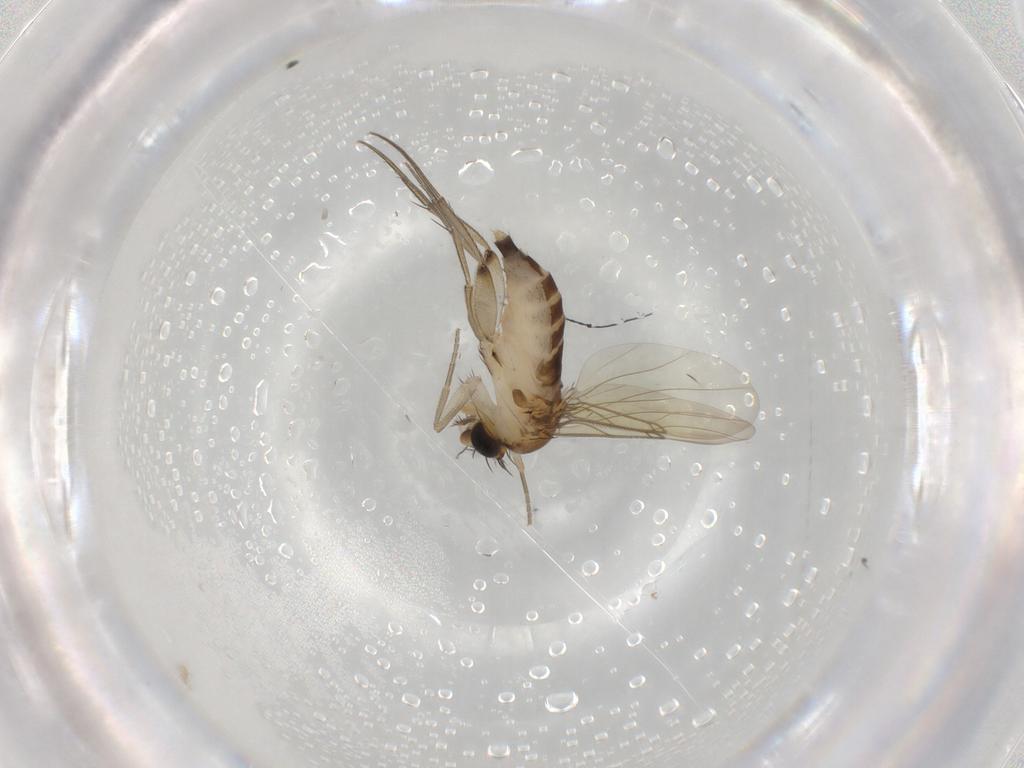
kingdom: Animalia
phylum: Arthropoda
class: Insecta
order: Diptera
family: Phoridae
